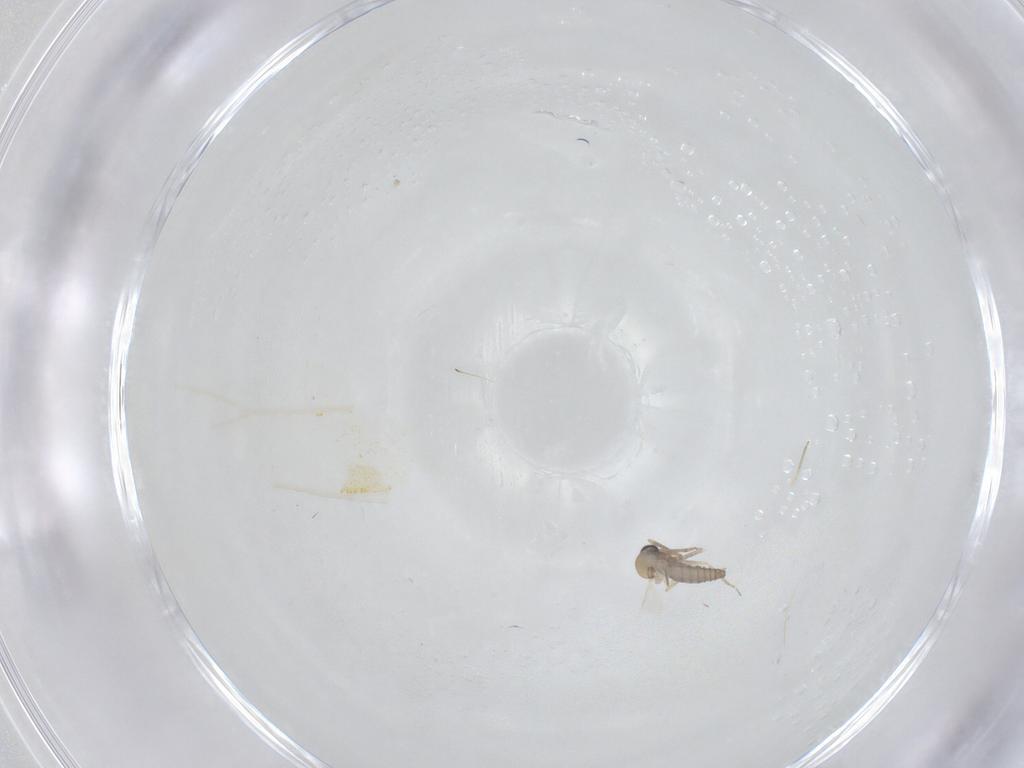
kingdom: Animalia
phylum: Arthropoda
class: Insecta
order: Diptera
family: Ceratopogonidae
